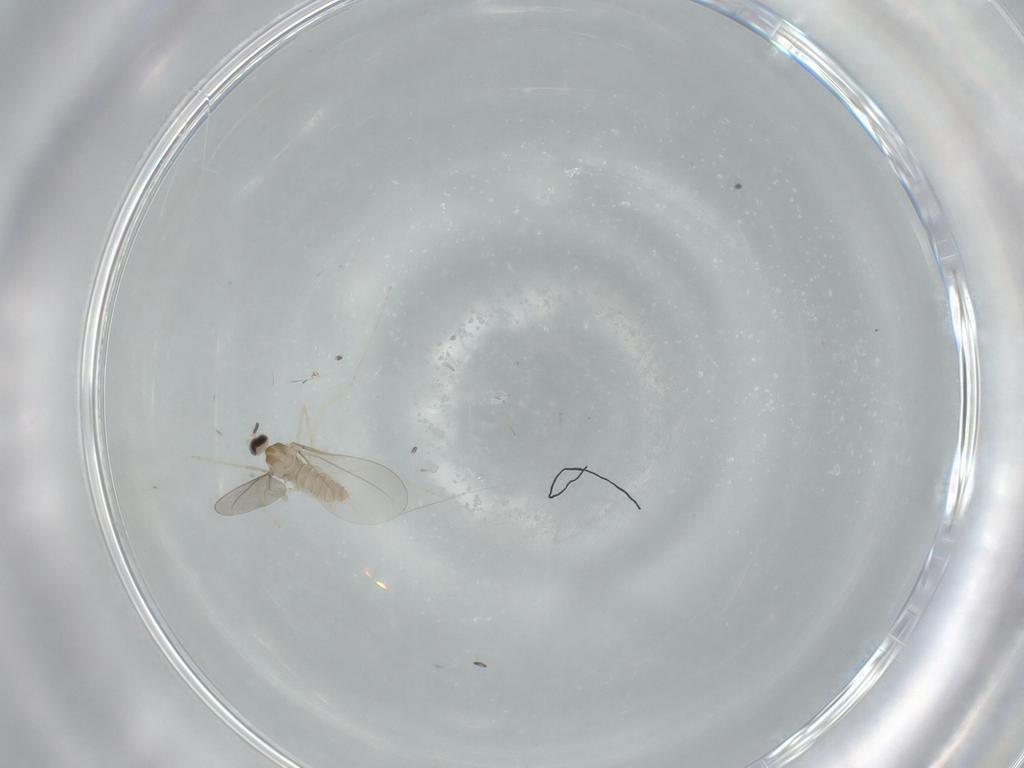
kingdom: Animalia
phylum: Arthropoda
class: Insecta
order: Diptera
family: Cecidomyiidae
